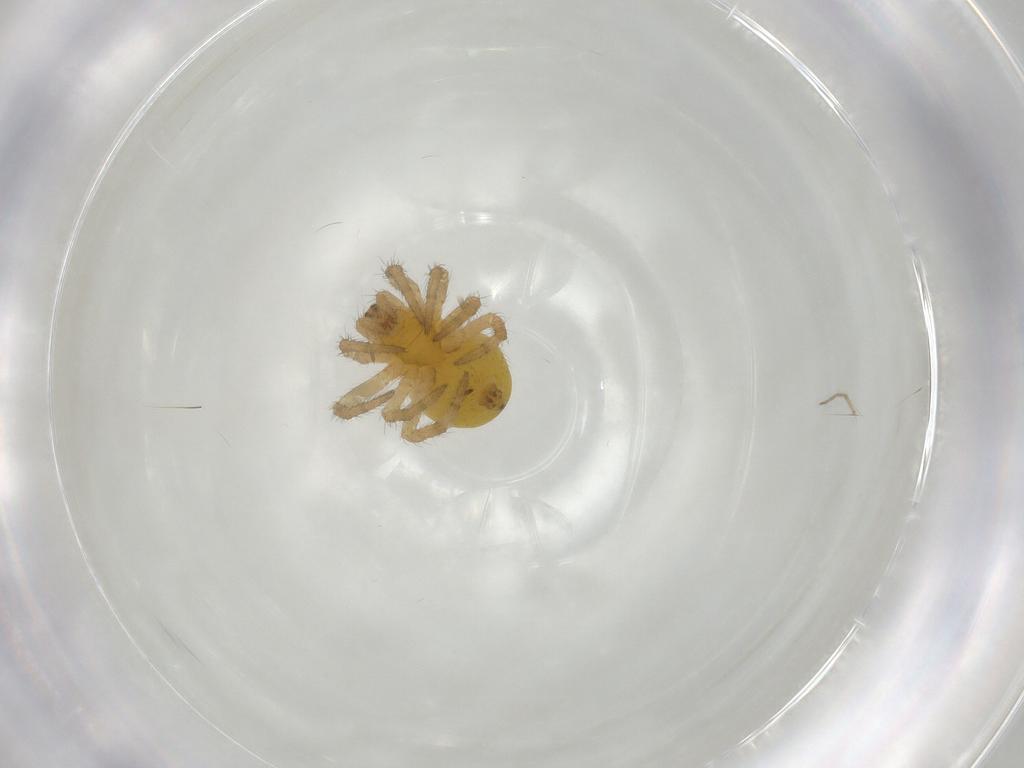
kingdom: Animalia
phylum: Arthropoda
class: Arachnida
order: Araneae
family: Araneidae
